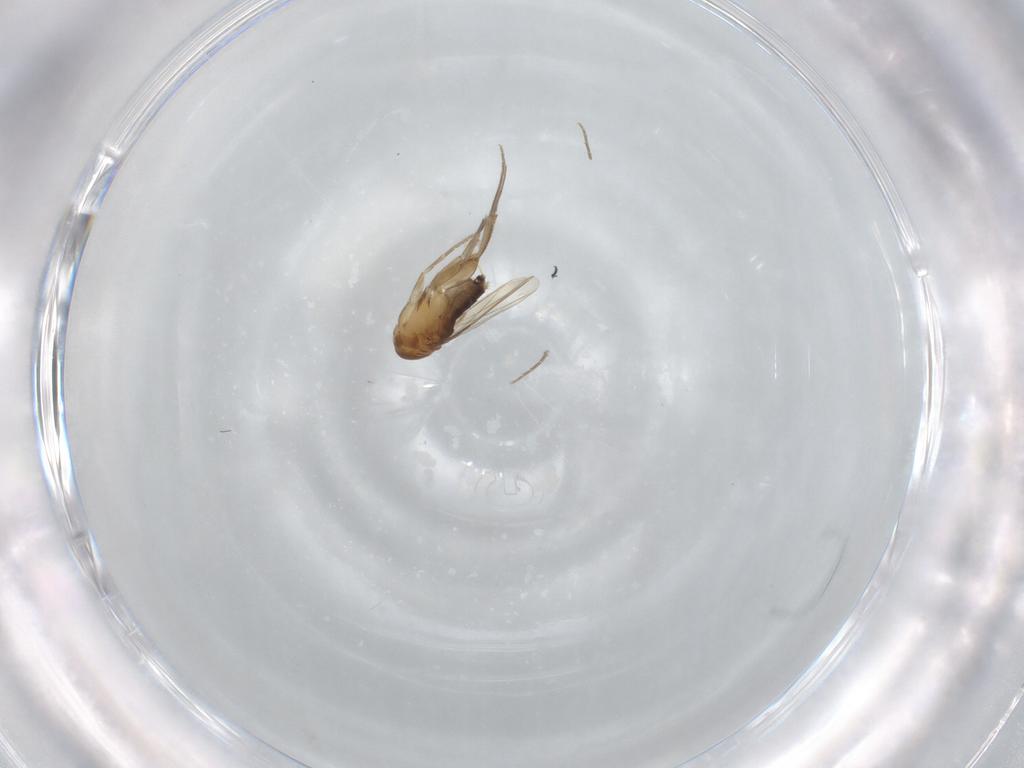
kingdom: Animalia
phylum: Arthropoda
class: Insecta
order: Diptera
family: Phoridae
